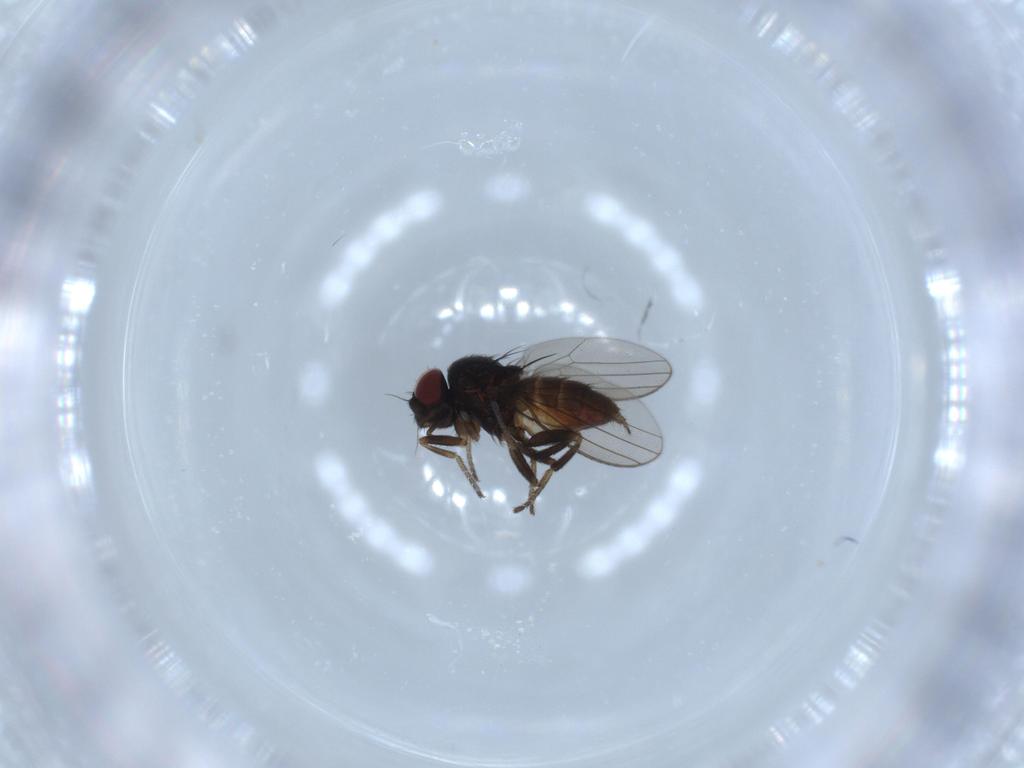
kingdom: Animalia
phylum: Arthropoda
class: Insecta
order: Diptera
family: Milichiidae
